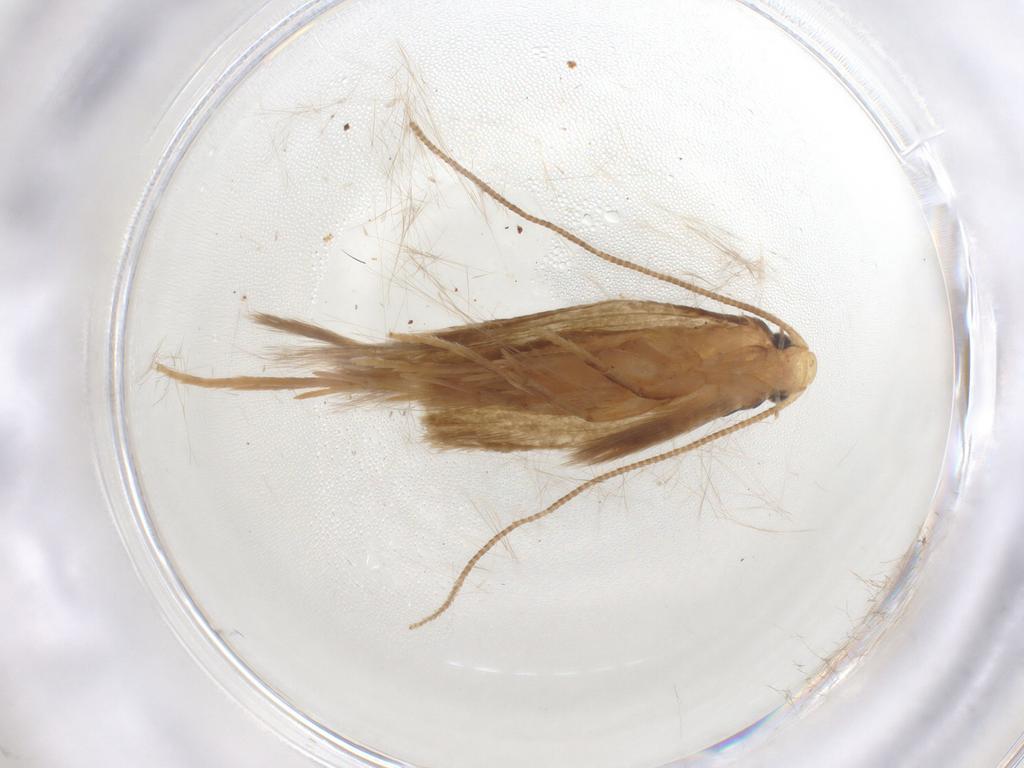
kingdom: Animalia
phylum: Arthropoda
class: Insecta
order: Lepidoptera
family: Tineidae
